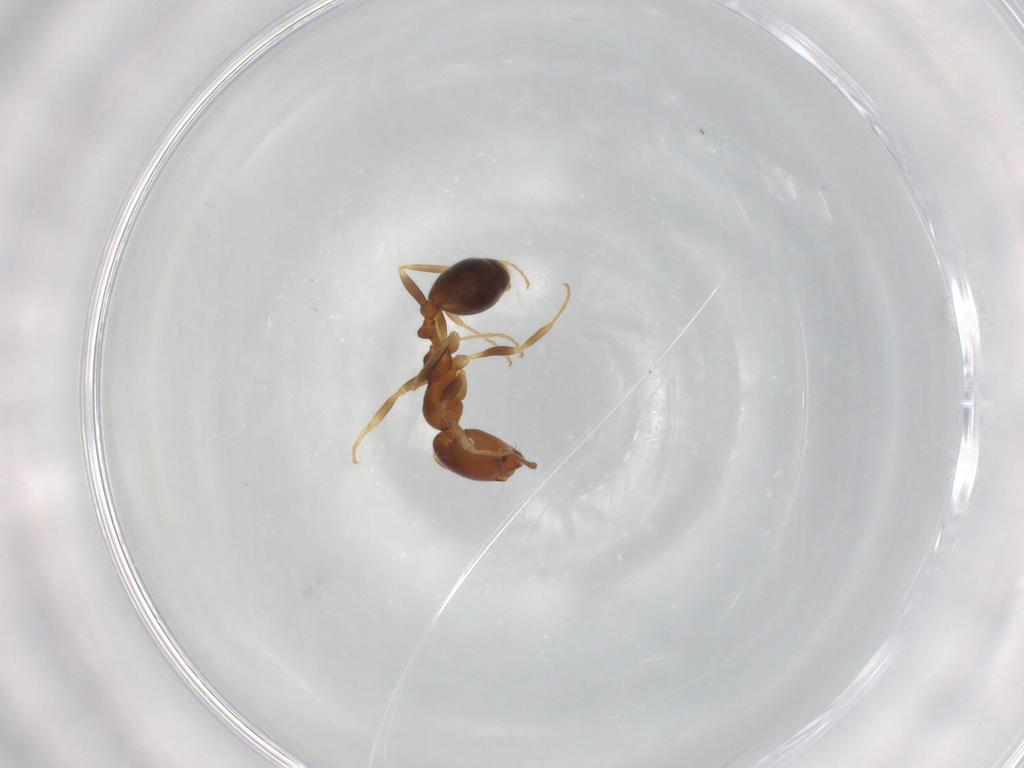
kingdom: Animalia
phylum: Arthropoda
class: Insecta
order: Hymenoptera
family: Formicidae
